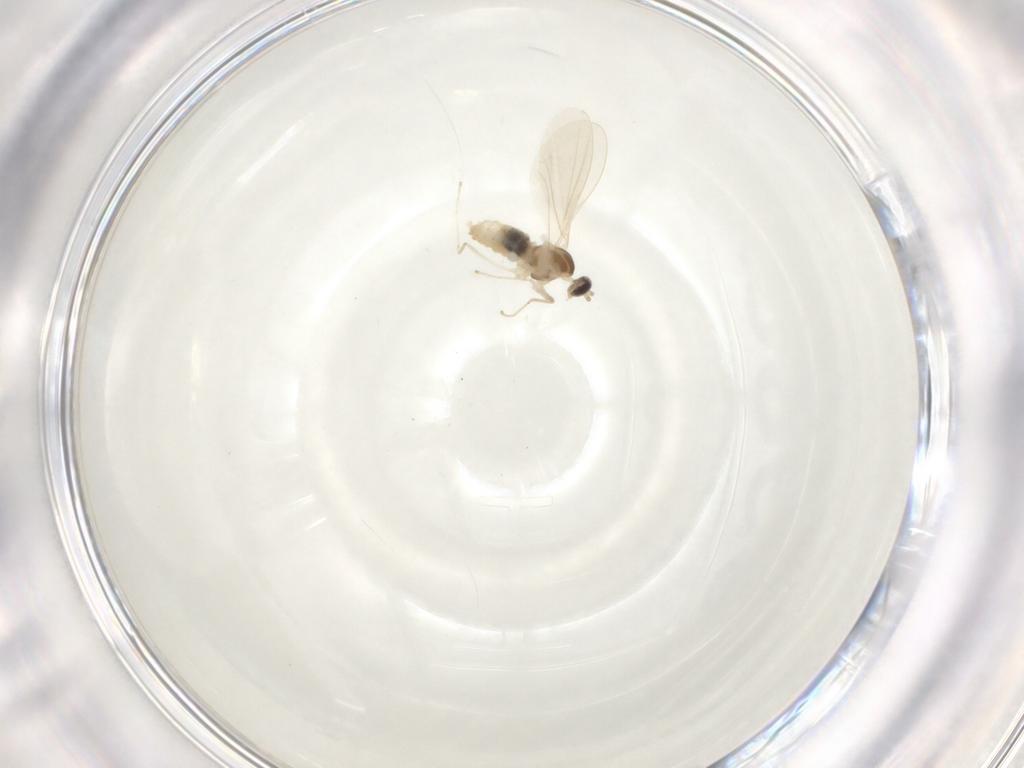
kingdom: Animalia
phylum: Arthropoda
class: Insecta
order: Diptera
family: Cecidomyiidae
